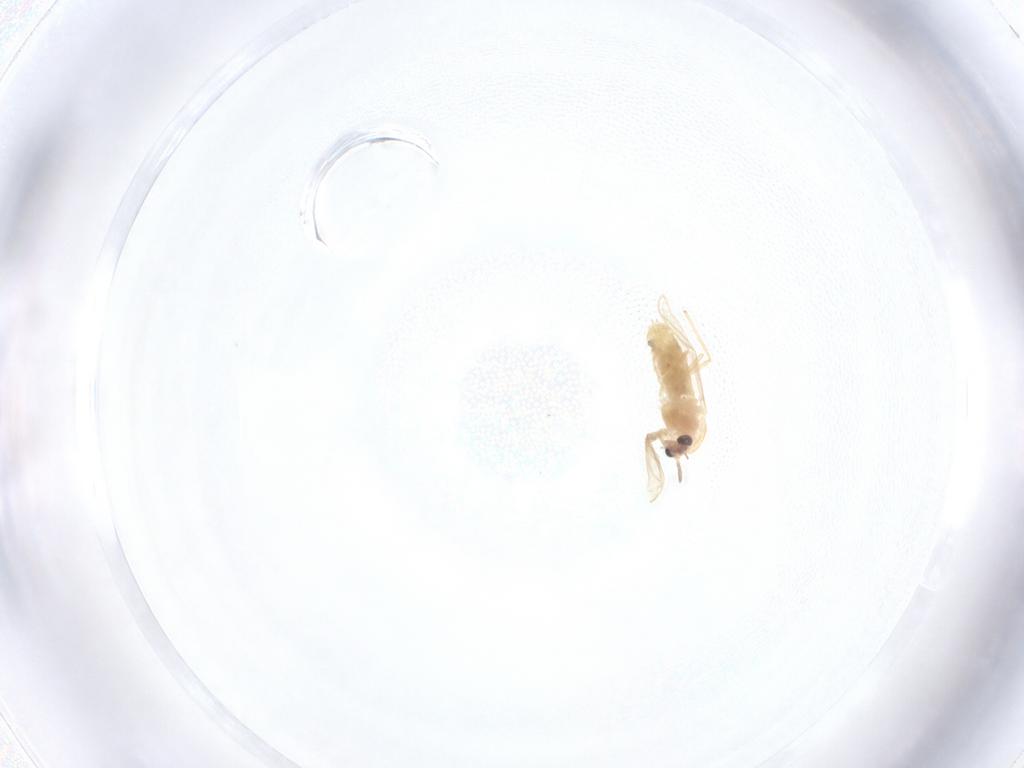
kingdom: Animalia
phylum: Arthropoda
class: Insecta
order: Diptera
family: Chironomidae
